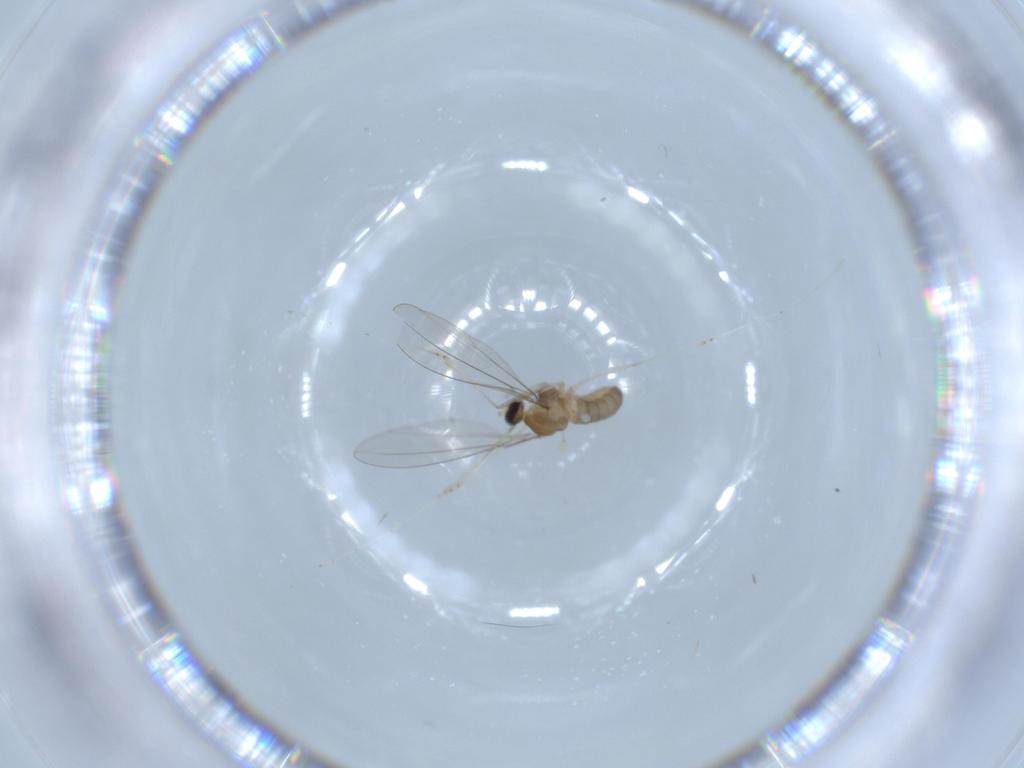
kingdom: Animalia
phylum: Arthropoda
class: Insecta
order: Diptera
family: Cecidomyiidae
